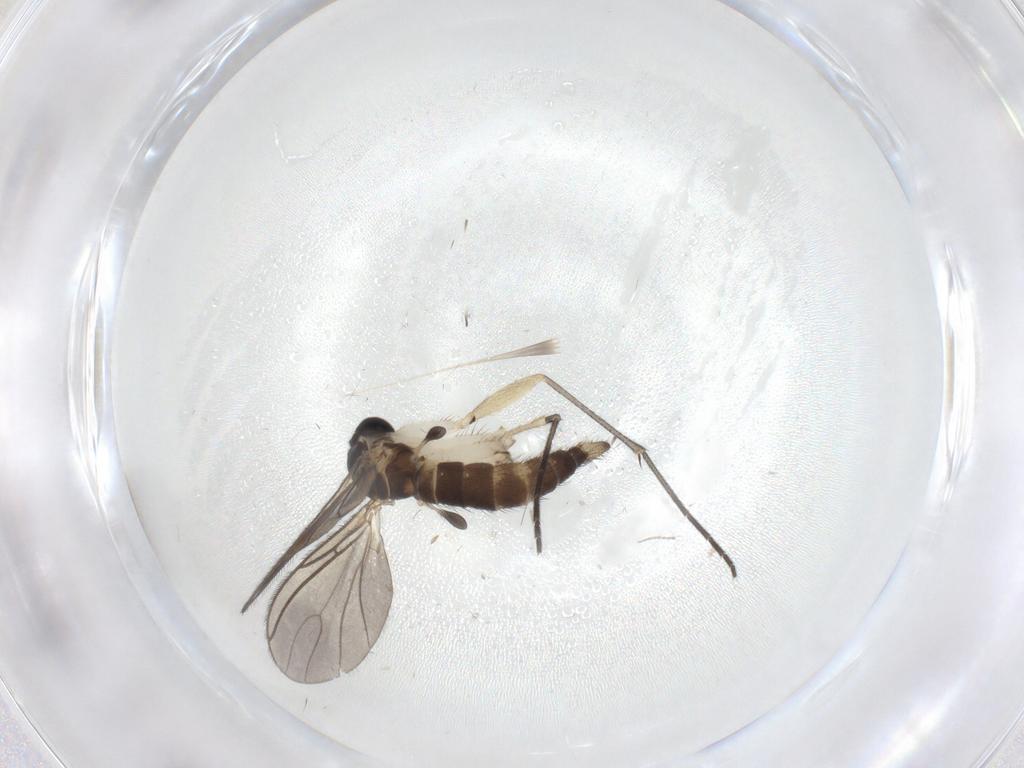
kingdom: Animalia
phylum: Arthropoda
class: Insecta
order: Diptera
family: Sciaridae
